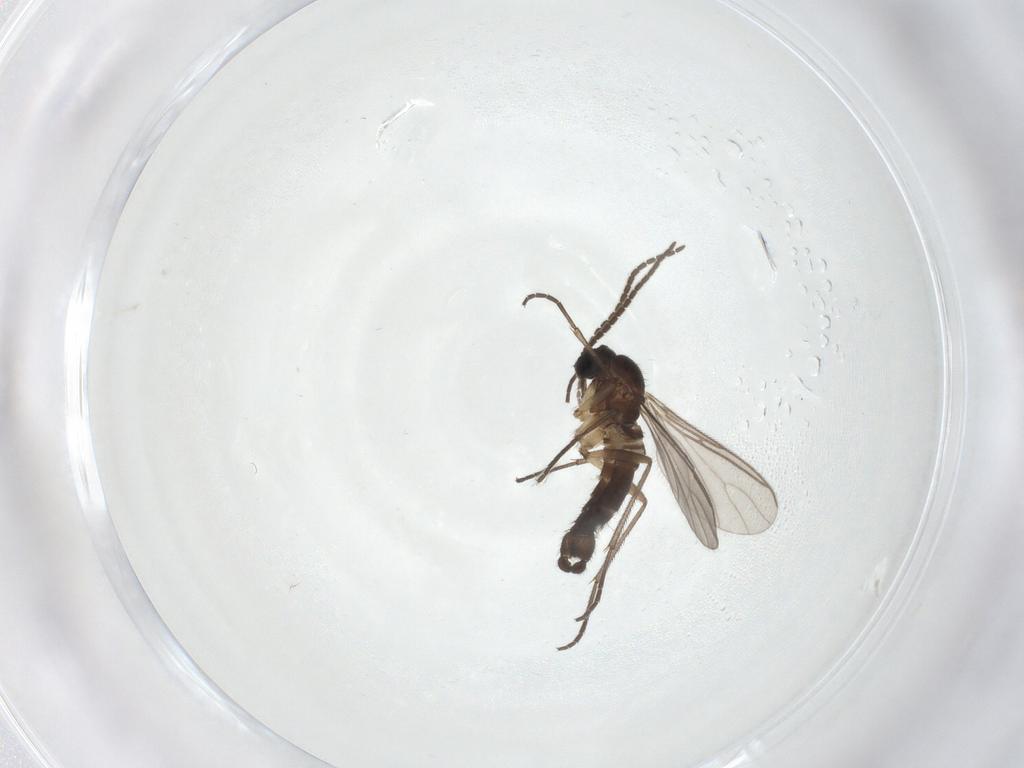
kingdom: Animalia
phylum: Arthropoda
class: Insecta
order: Diptera
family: Sciaridae
